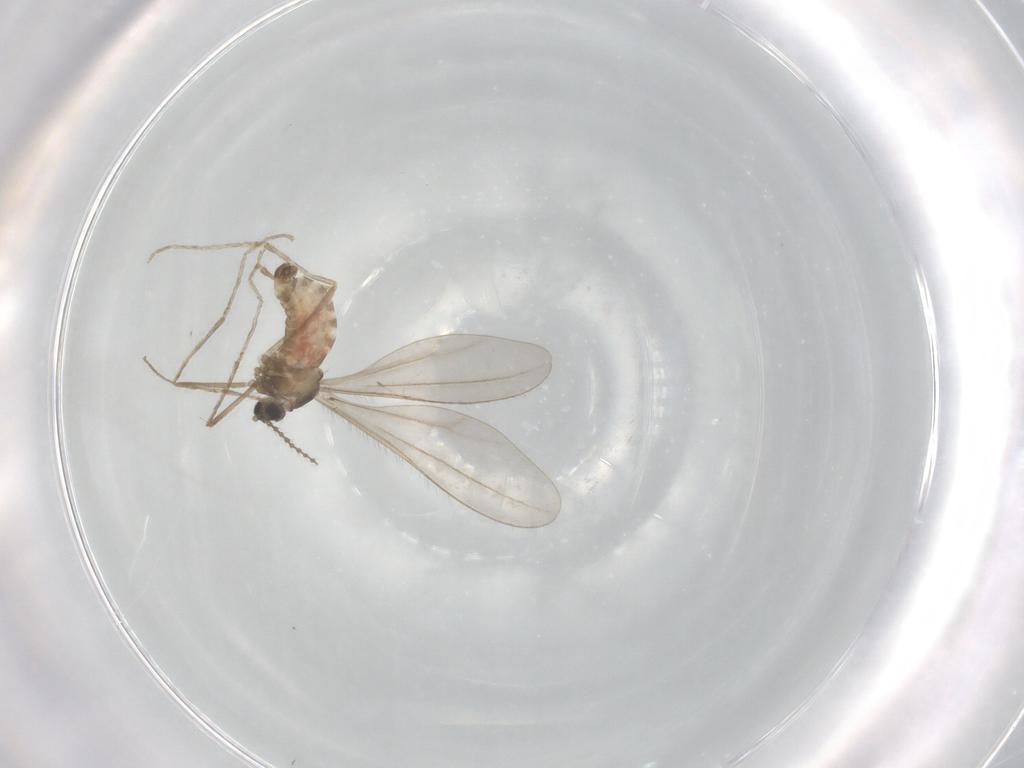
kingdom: Animalia
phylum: Arthropoda
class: Insecta
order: Diptera
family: Cecidomyiidae
